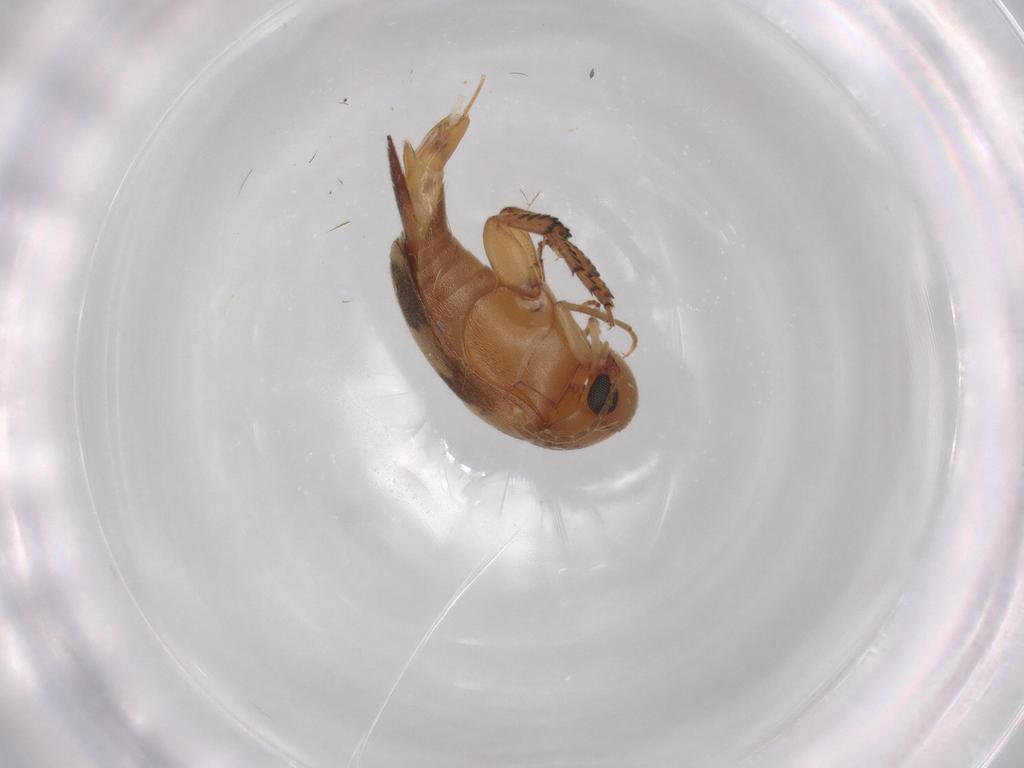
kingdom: Animalia
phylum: Arthropoda
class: Insecta
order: Coleoptera
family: Mordellidae
